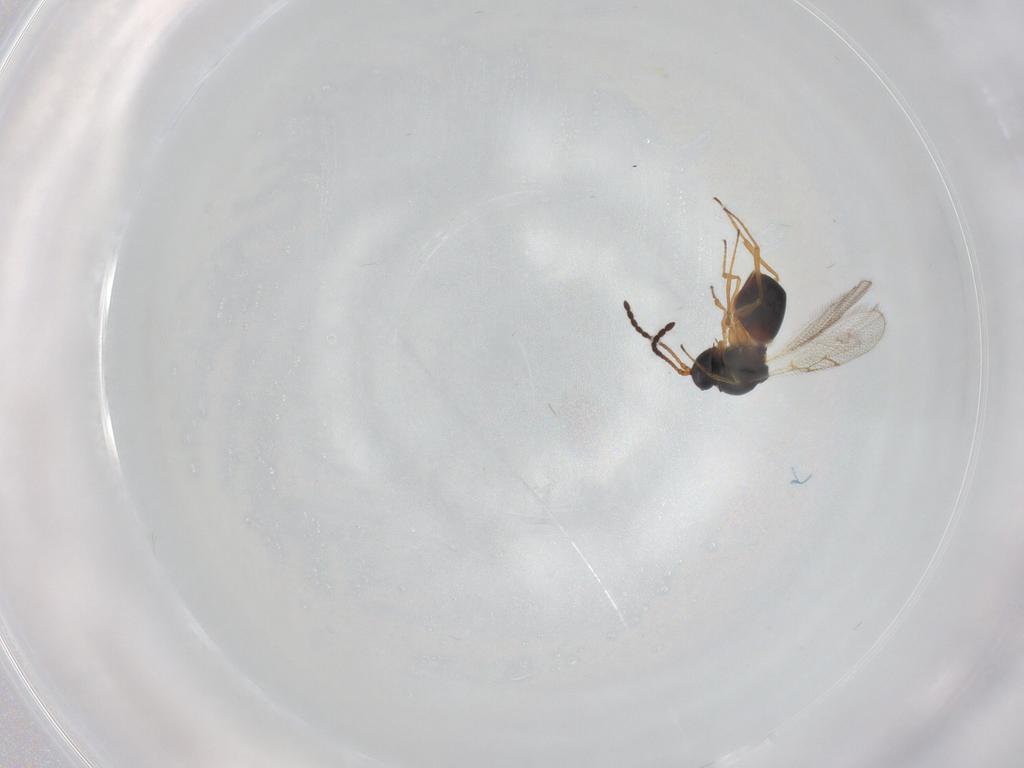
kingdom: Animalia
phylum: Arthropoda
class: Insecta
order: Hymenoptera
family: Figitidae
